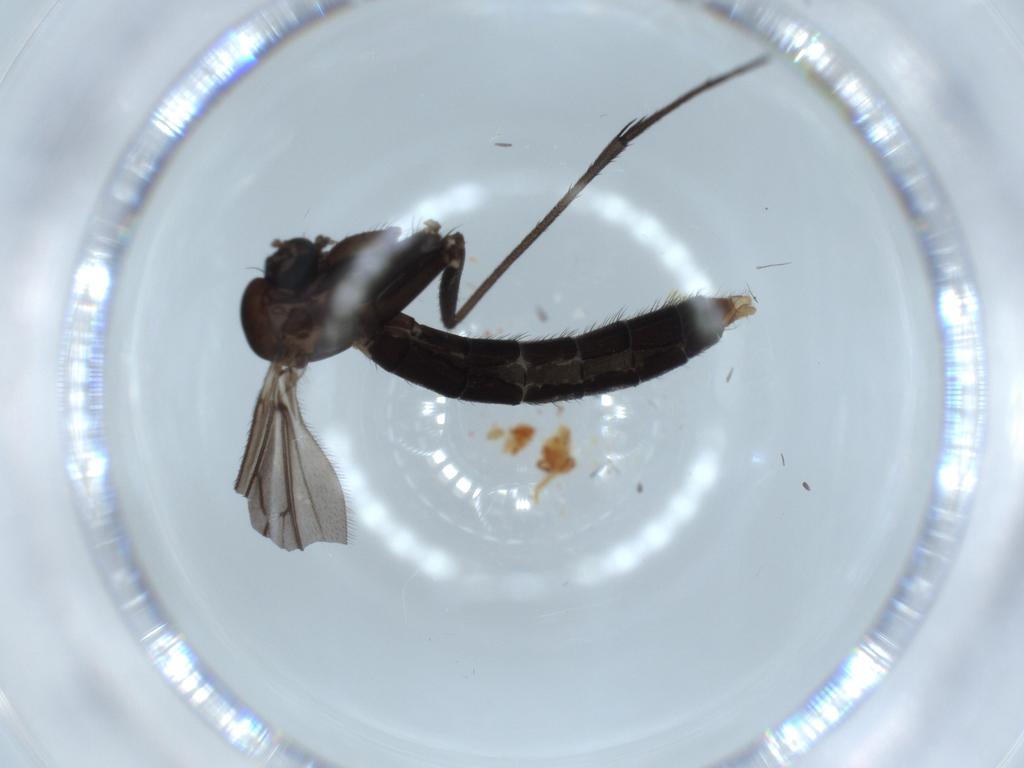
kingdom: Animalia
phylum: Arthropoda
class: Insecta
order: Diptera
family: Muscidae
